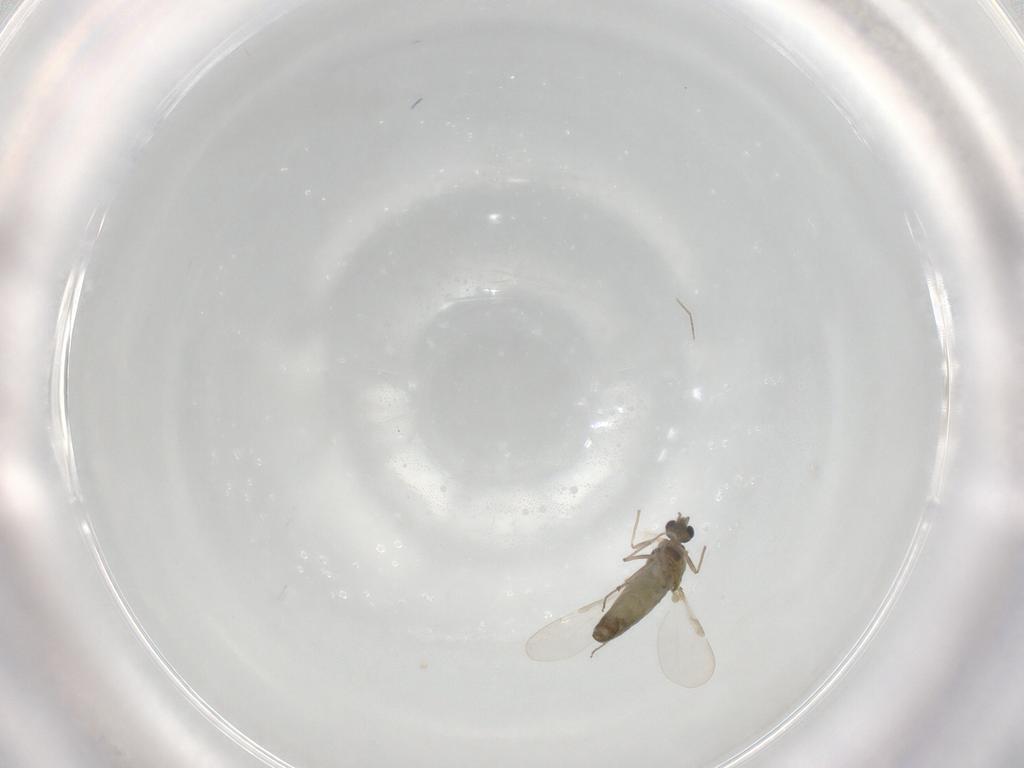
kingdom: Animalia
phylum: Arthropoda
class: Insecta
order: Diptera
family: Chironomidae
